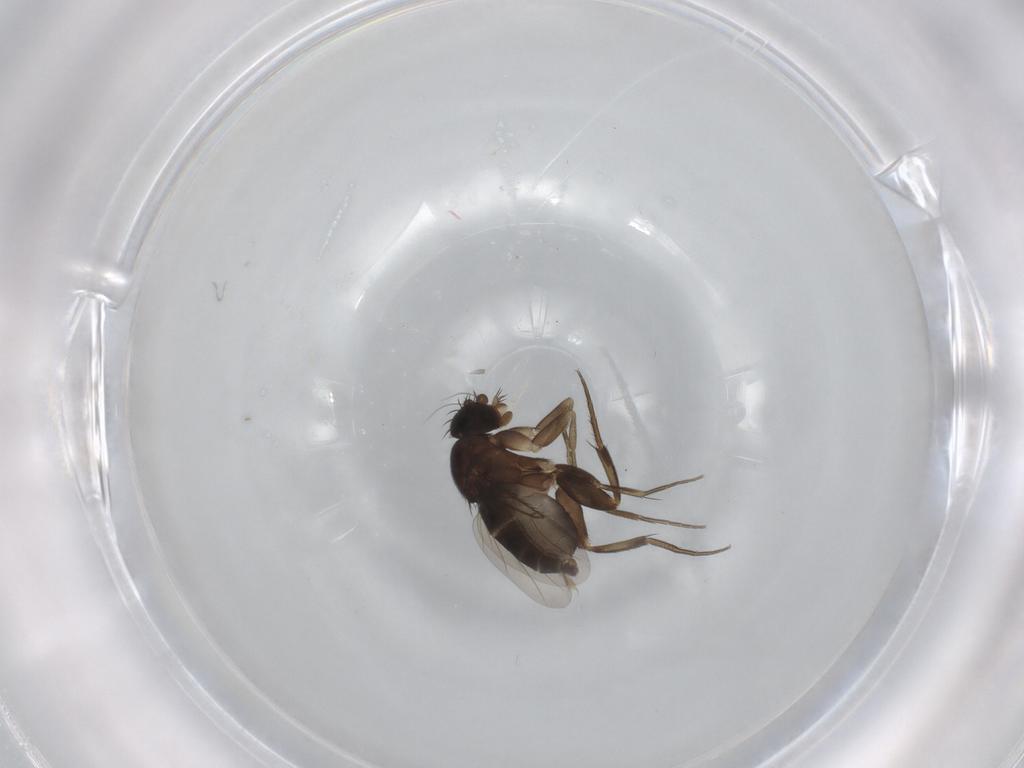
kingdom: Animalia
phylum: Arthropoda
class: Insecta
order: Diptera
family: Phoridae
